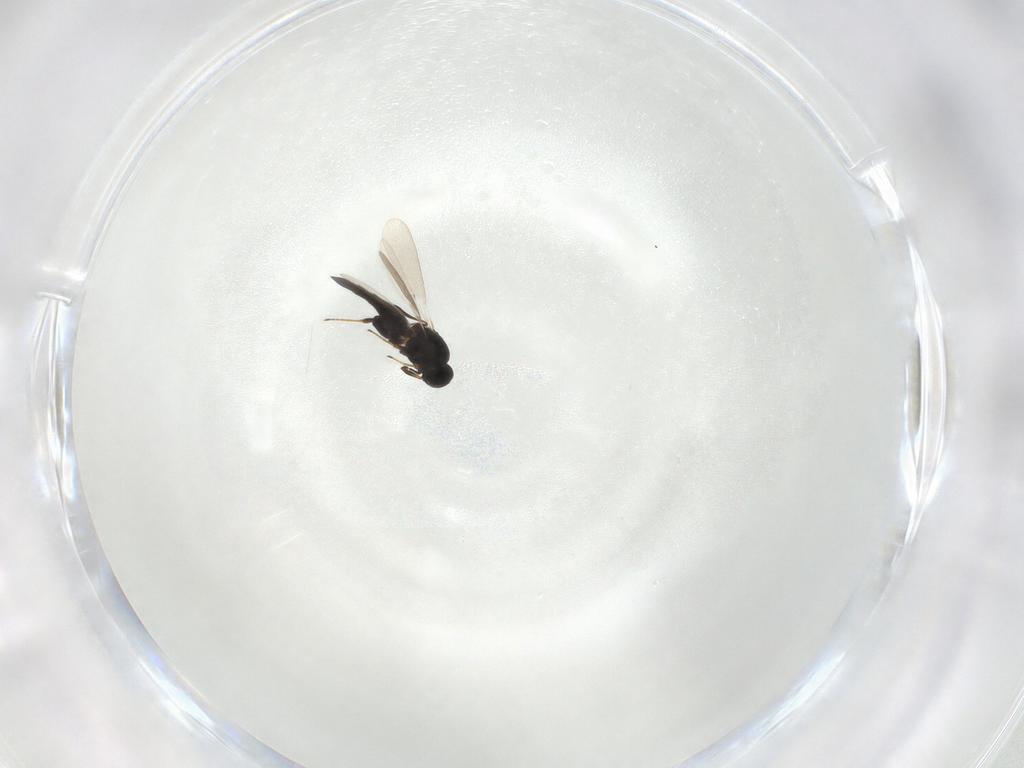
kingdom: Animalia
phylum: Arthropoda
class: Insecta
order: Hymenoptera
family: Platygastridae
